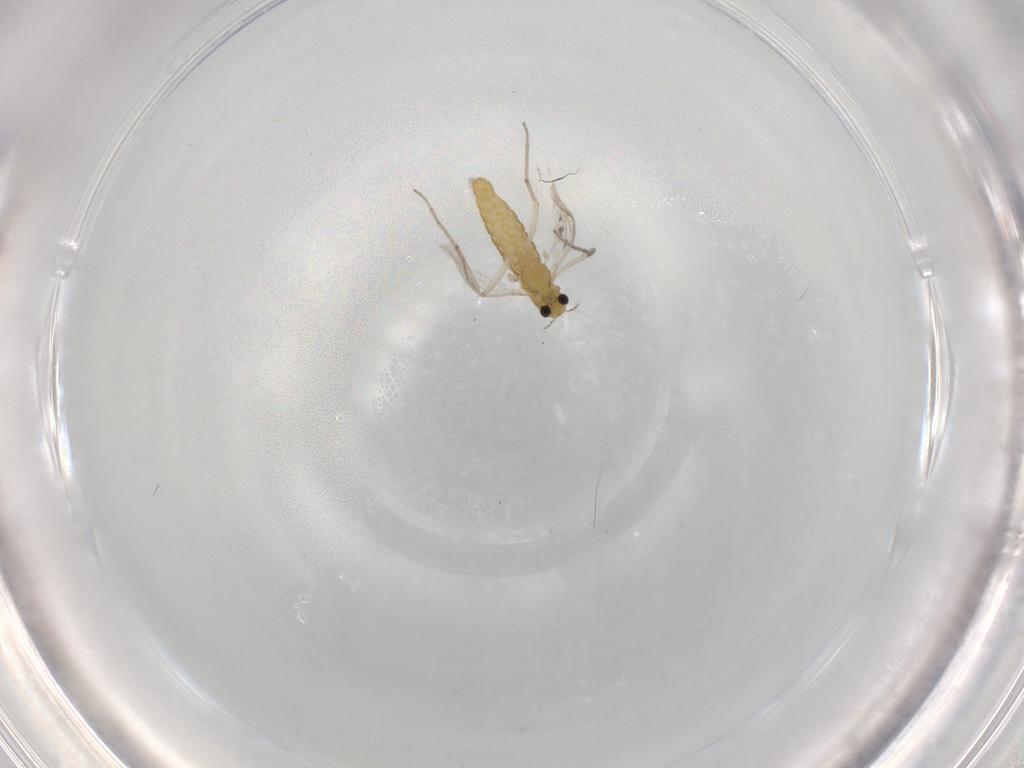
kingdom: Animalia
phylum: Arthropoda
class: Insecta
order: Diptera
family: Chironomidae
